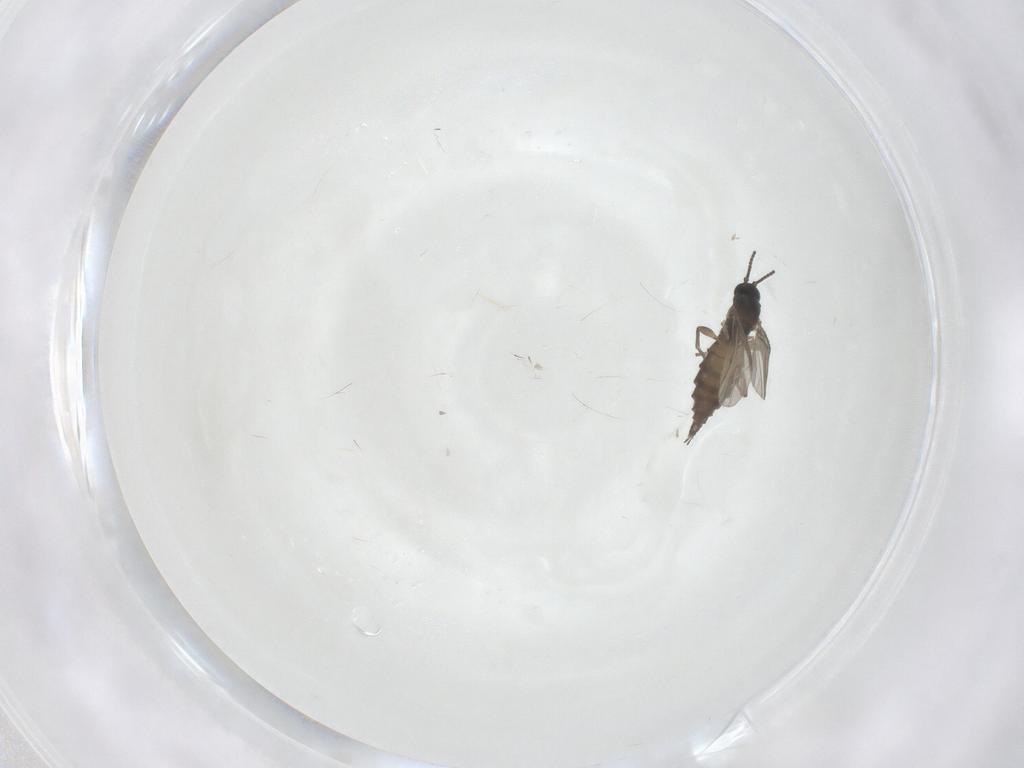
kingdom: Animalia
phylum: Arthropoda
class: Insecta
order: Diptera
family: Sciaridae
